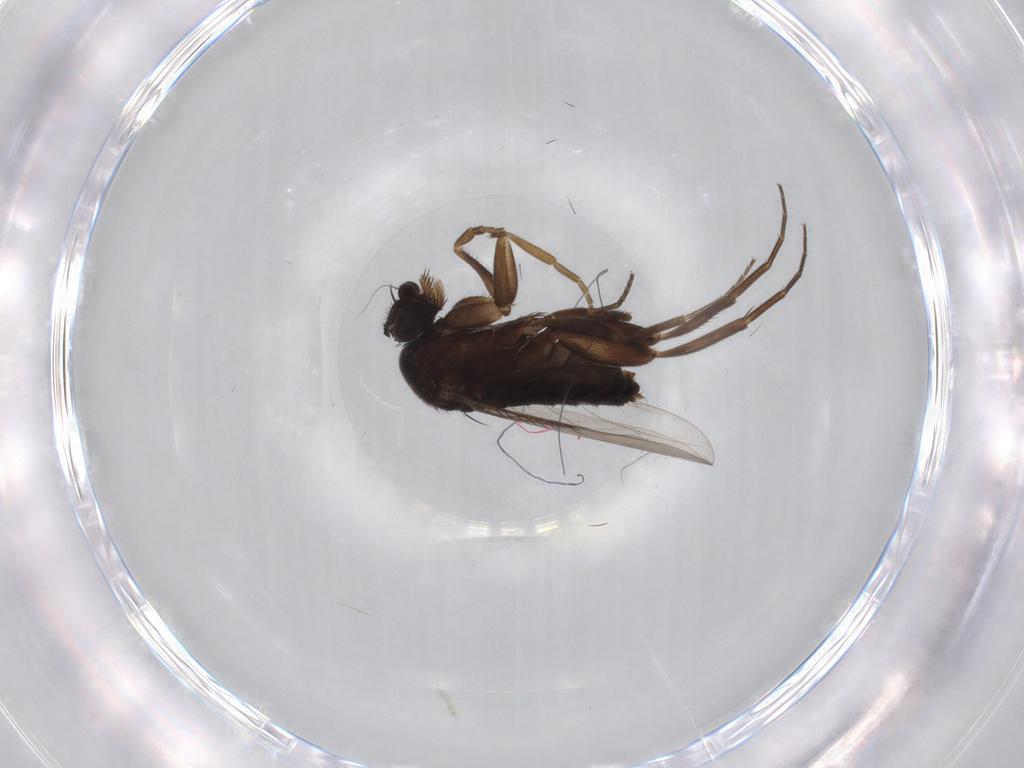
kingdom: Animalia
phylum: Arthropoda
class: Insecta
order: Diptera
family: Phoridae
